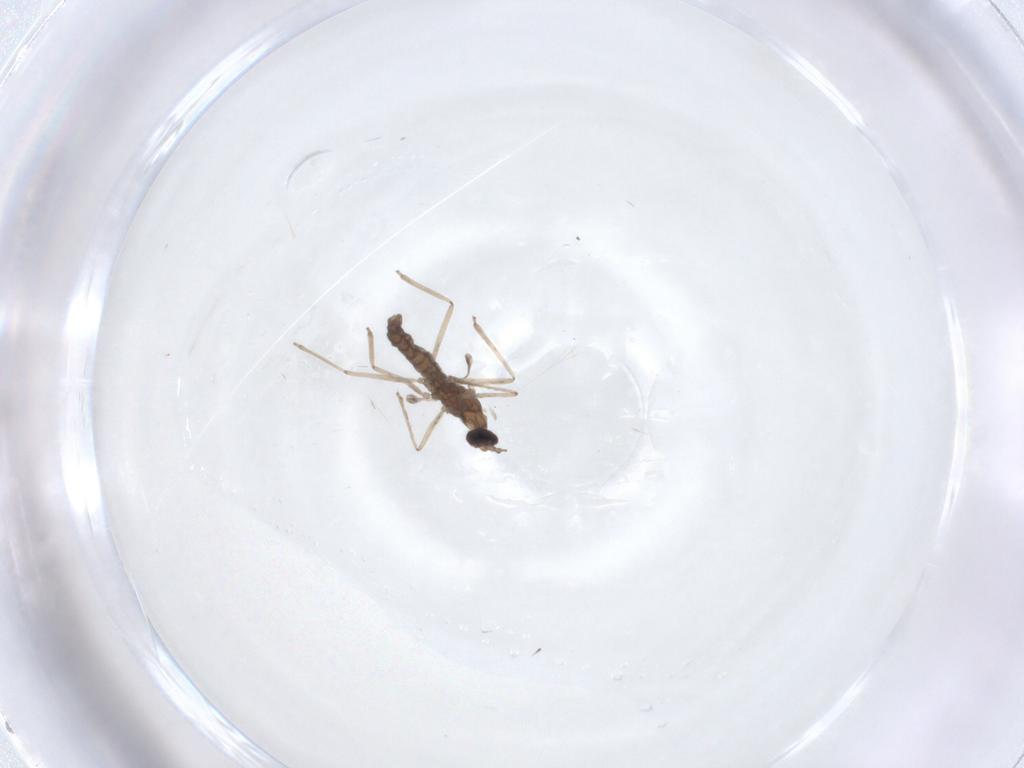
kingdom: Animalia
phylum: Arthropoda
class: Insecta
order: Diptera
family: Cecidomyiidae
